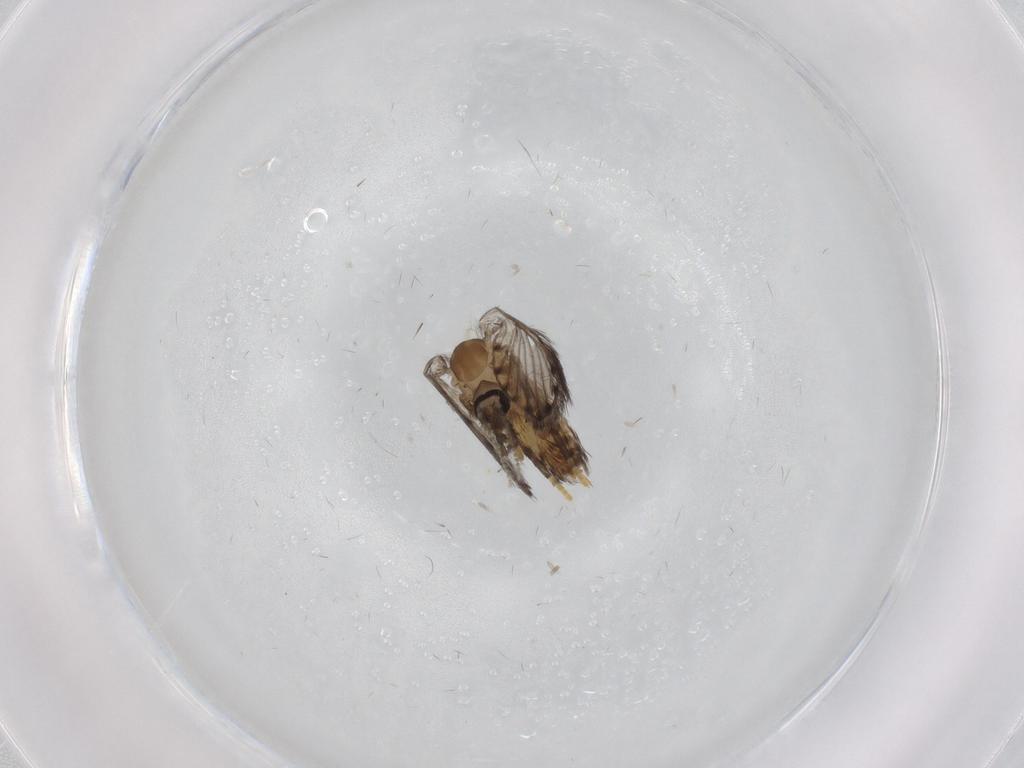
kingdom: Animalia
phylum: Arthropoda
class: Insecta
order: Diptera
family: Psychodidae
